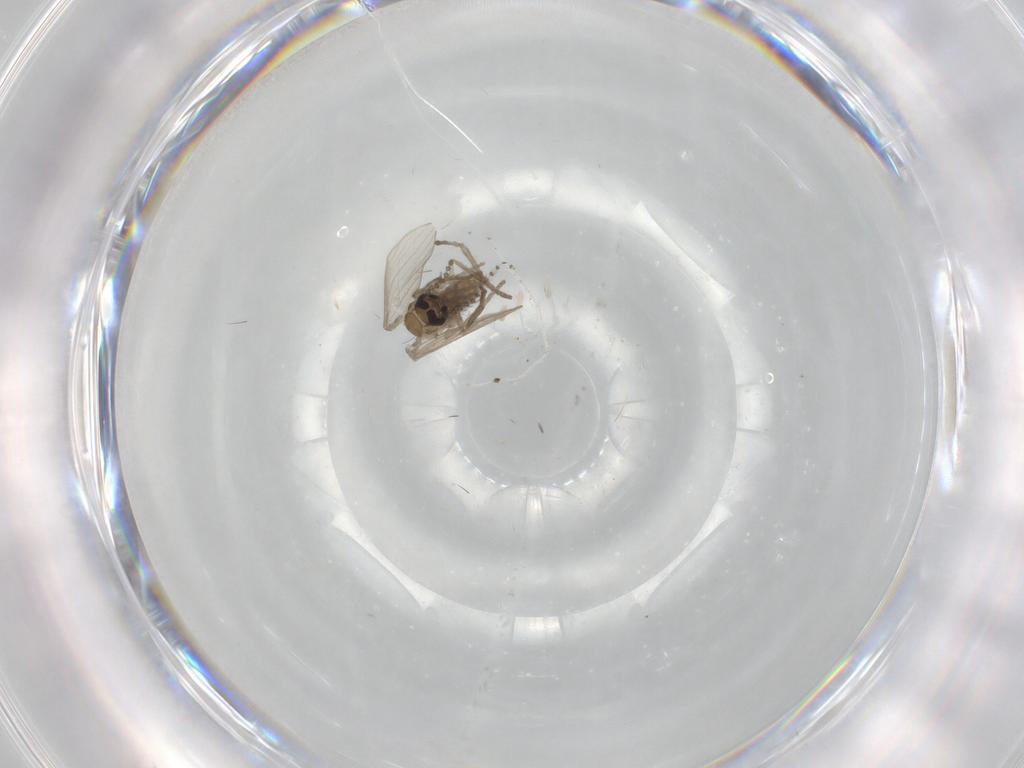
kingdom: Animalia
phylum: Arthropoda
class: Insecta
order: Diptera
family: Cecidomyiidae
